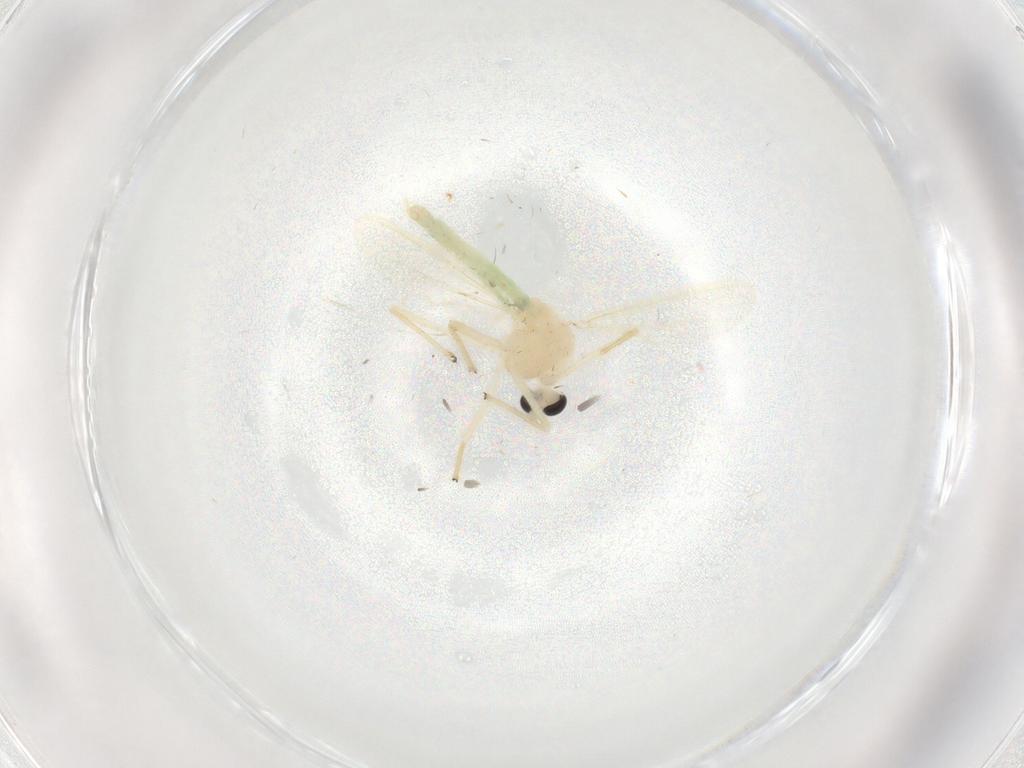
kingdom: Animalia
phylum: Arthropoda
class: Insecta
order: Diptera
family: Chironomidae
